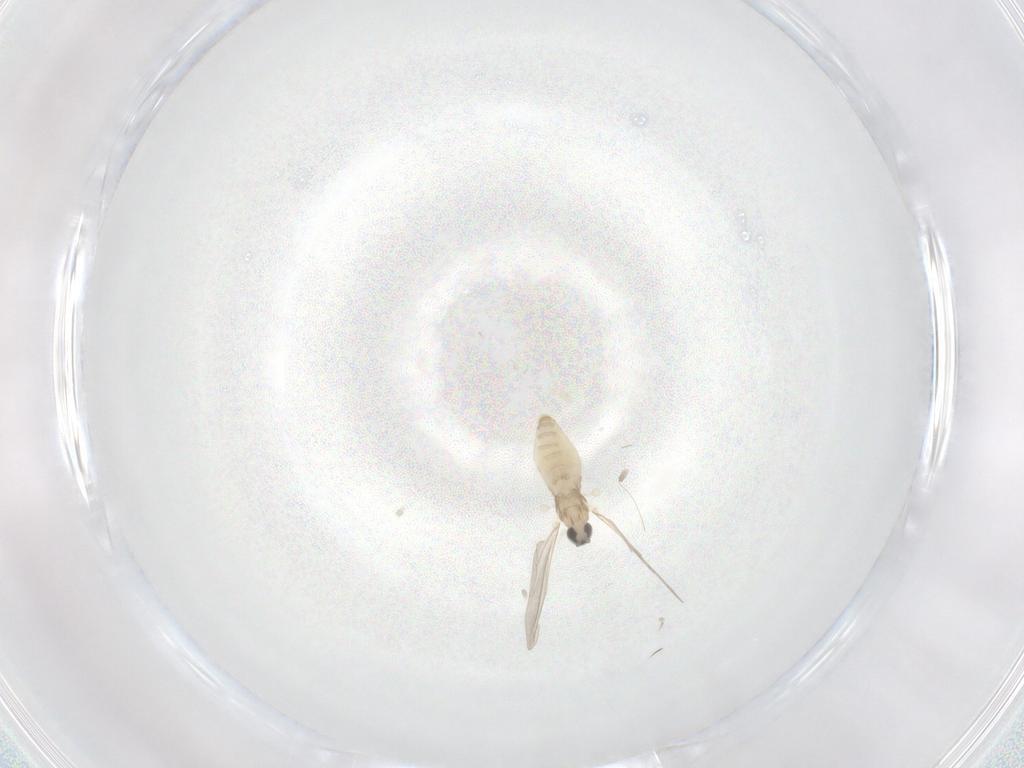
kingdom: Animalia
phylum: Arthropoda
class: Insecta
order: Diptera
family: Cecidomyiidae
